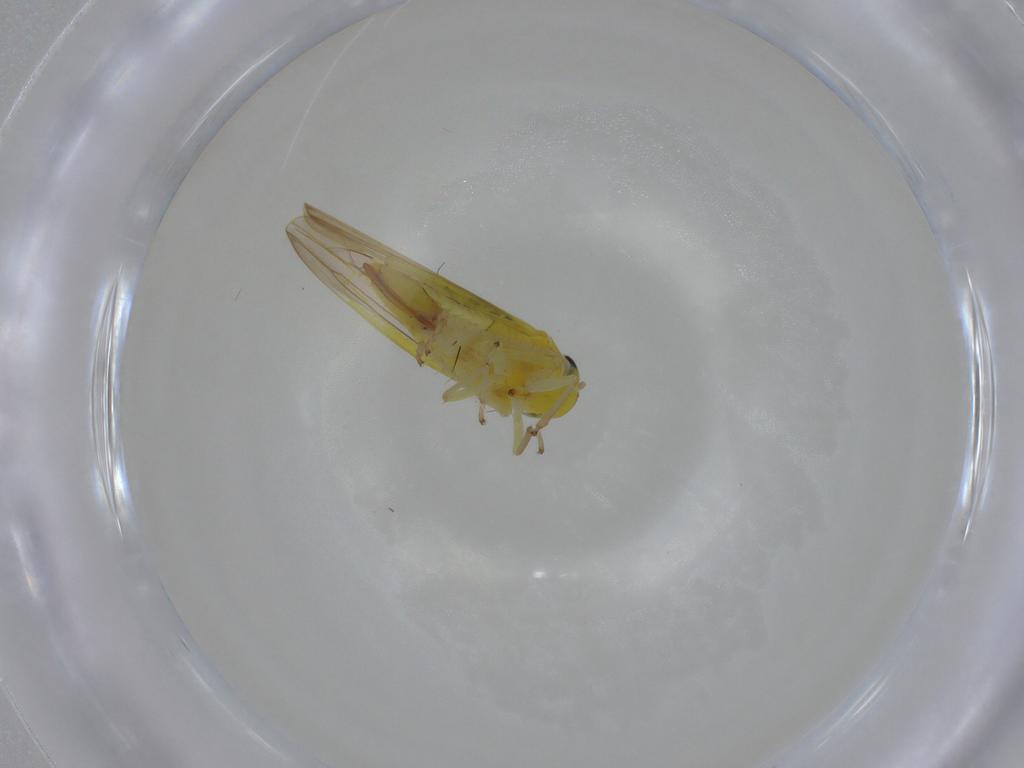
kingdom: Animalia
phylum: Arthropoda
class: Insecta
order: Hemiptera
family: Cicadellidae
